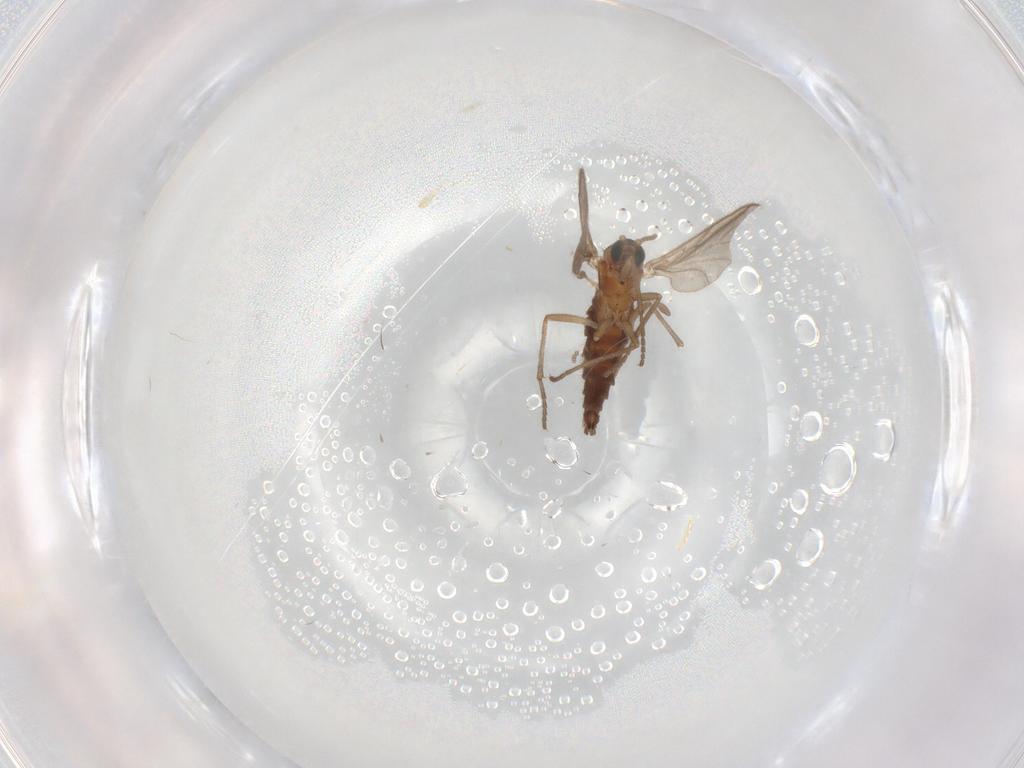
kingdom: Animalia
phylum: Arthropoda
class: Insecta
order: Diptera
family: Sciaridae
